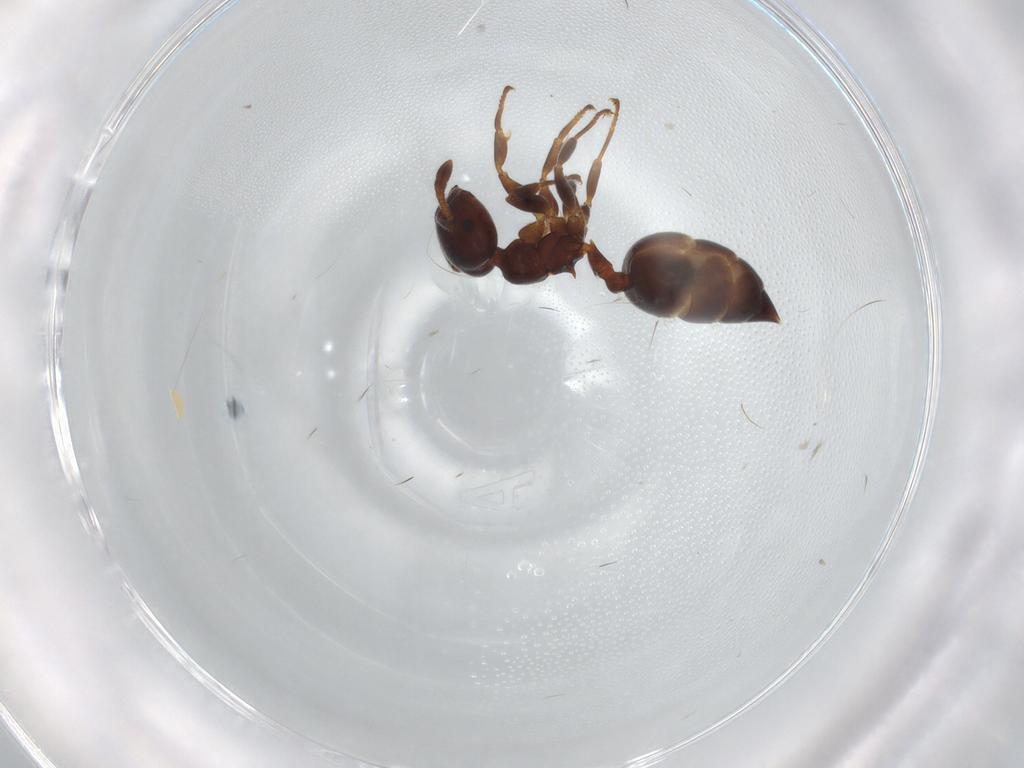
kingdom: Animalia
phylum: Arthropoda
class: Insecta
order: Hymenoptera
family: Formicidae
